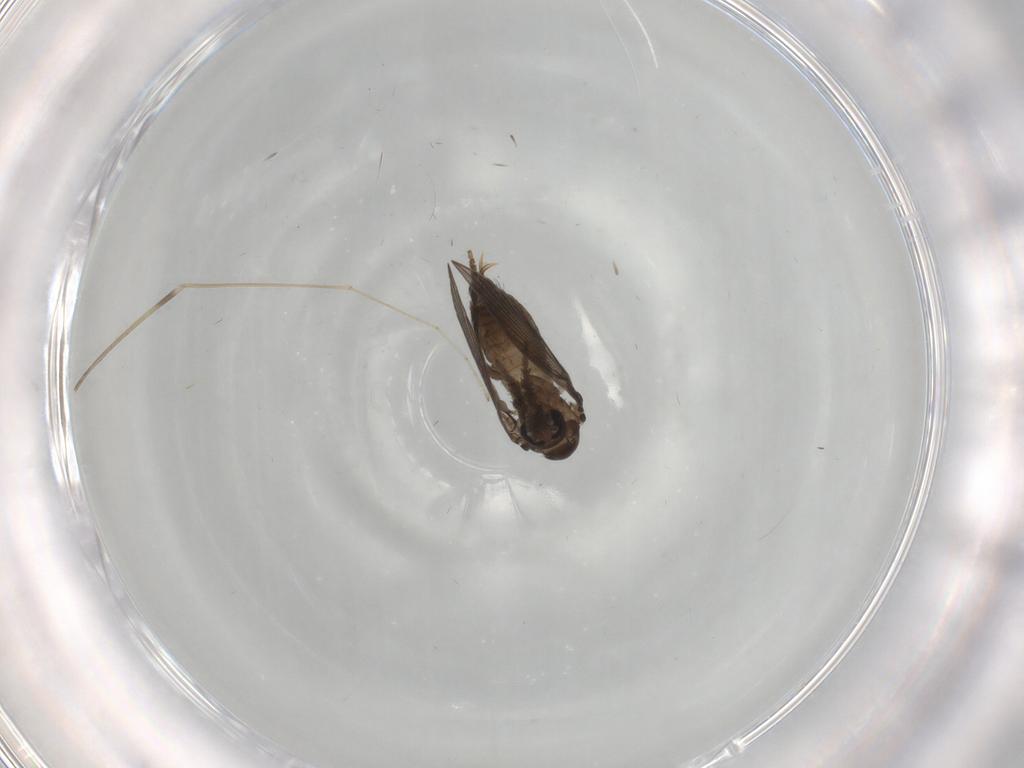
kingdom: Animalia
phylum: Arthropoda
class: Insecta
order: Diptera
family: Psychodidae
